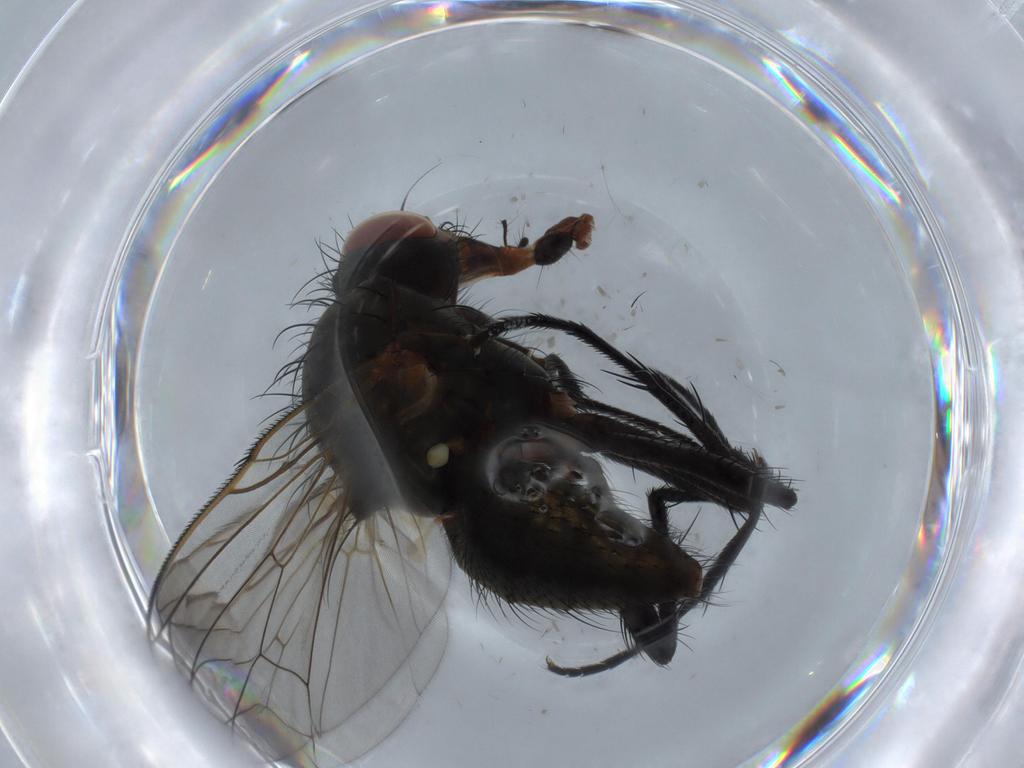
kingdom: Animalia
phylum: Arthropoda
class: Insecta
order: Diptera
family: Anthomyiidae
